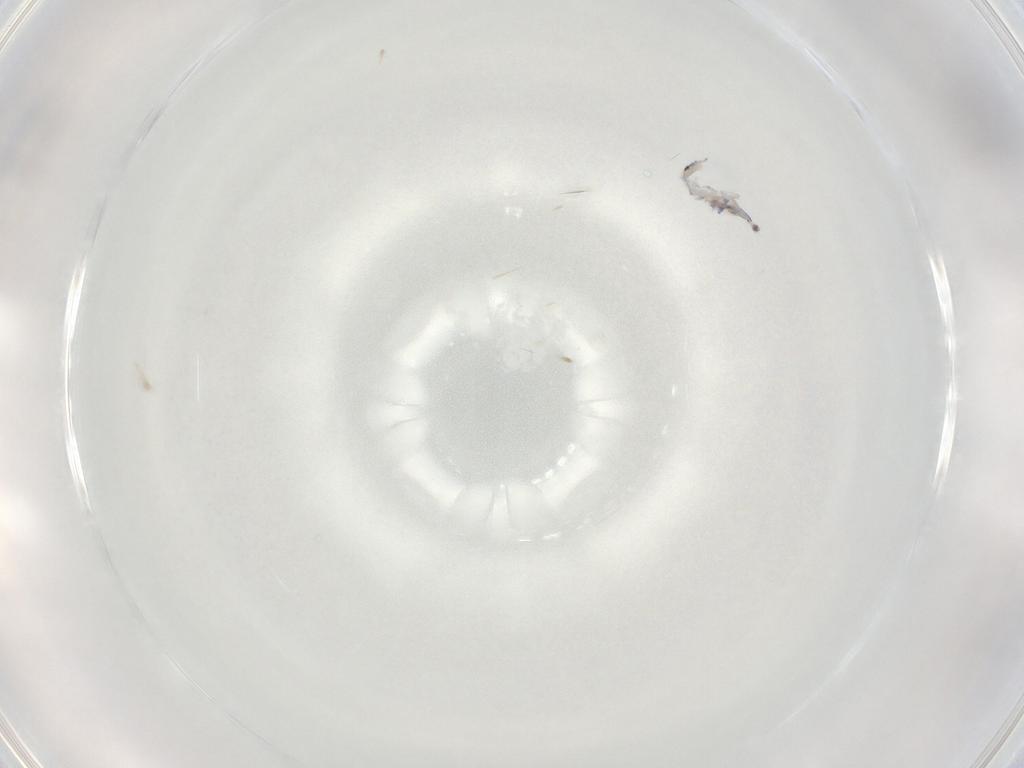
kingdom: Animalia
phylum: Arthropoda
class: Collembola
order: Entomobryomorpha
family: Entomobryidae
